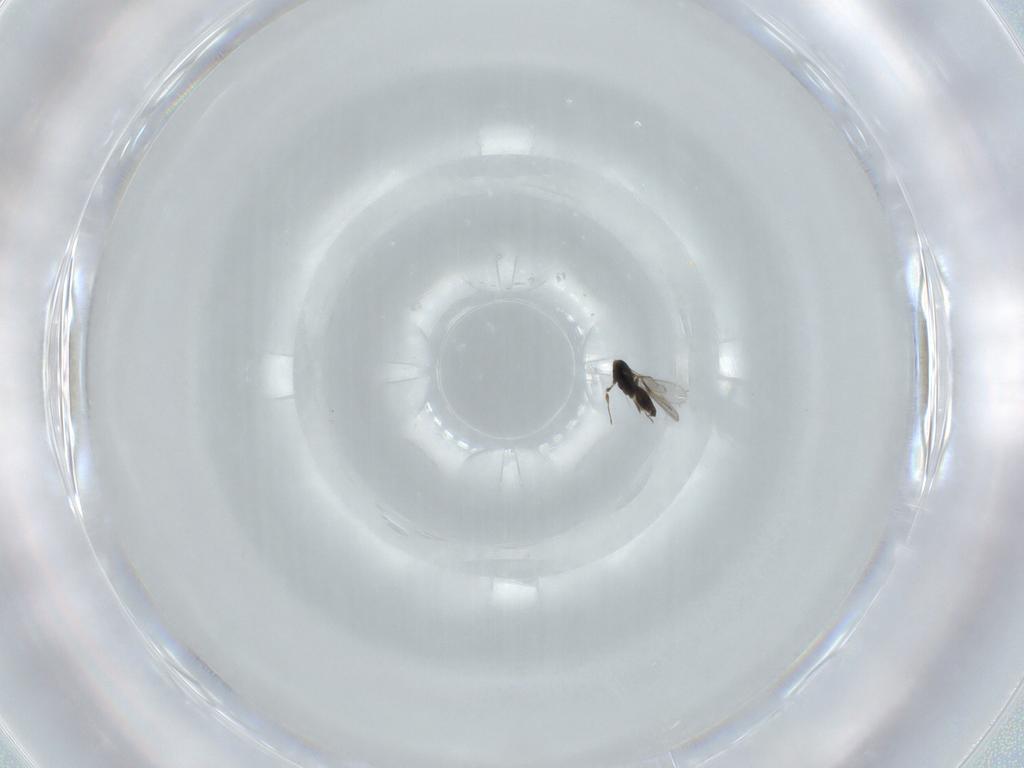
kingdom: Animalia
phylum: Arthropoda
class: Insecta
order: Hymenoptera
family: Scelionidae
